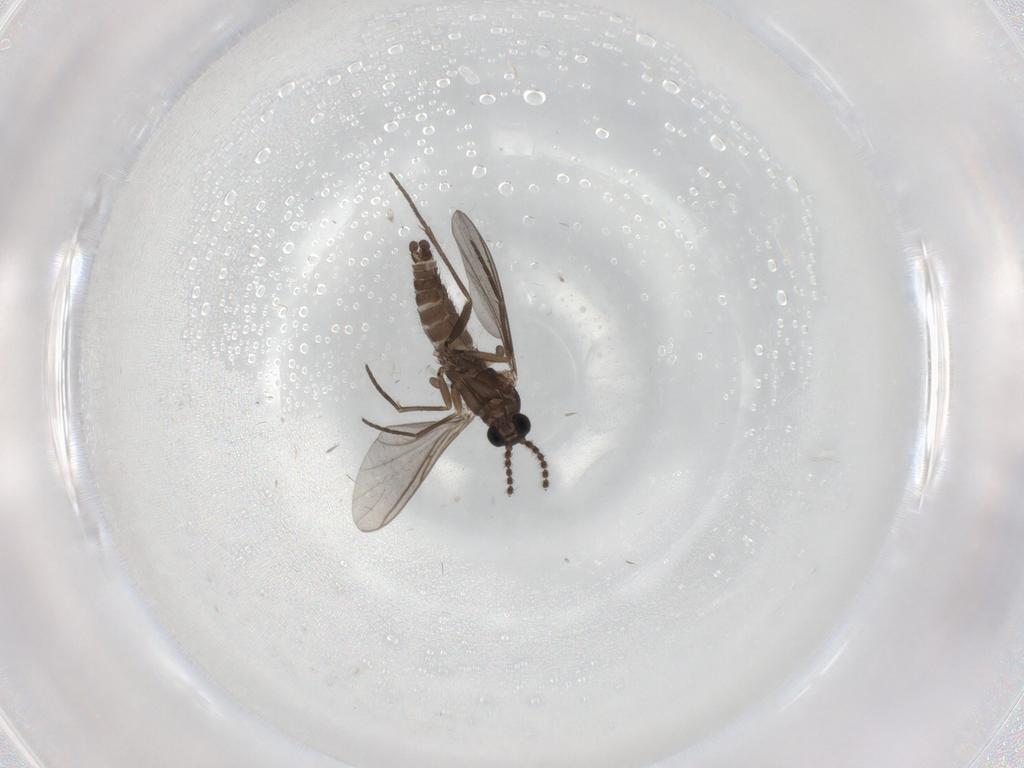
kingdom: Animalia
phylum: Arthropoda
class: Insecta
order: Diptera
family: Sciaridae
